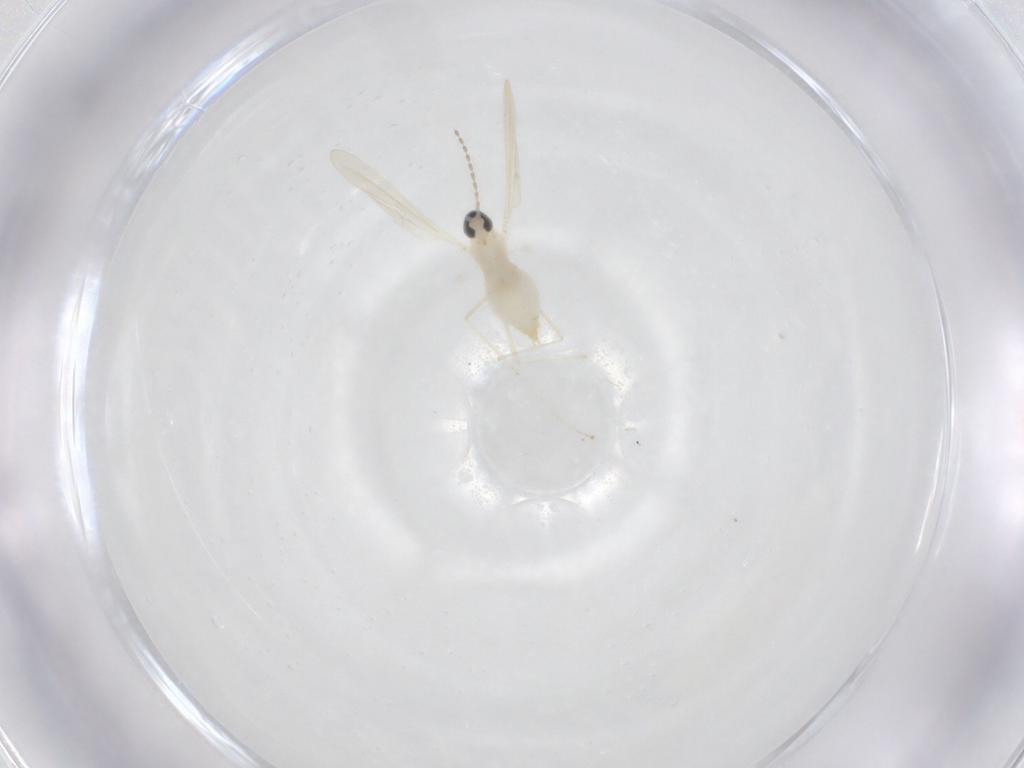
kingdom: Animalia
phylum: Arthropoda
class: Insecta
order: Diptera
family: Cecidomyiidae
